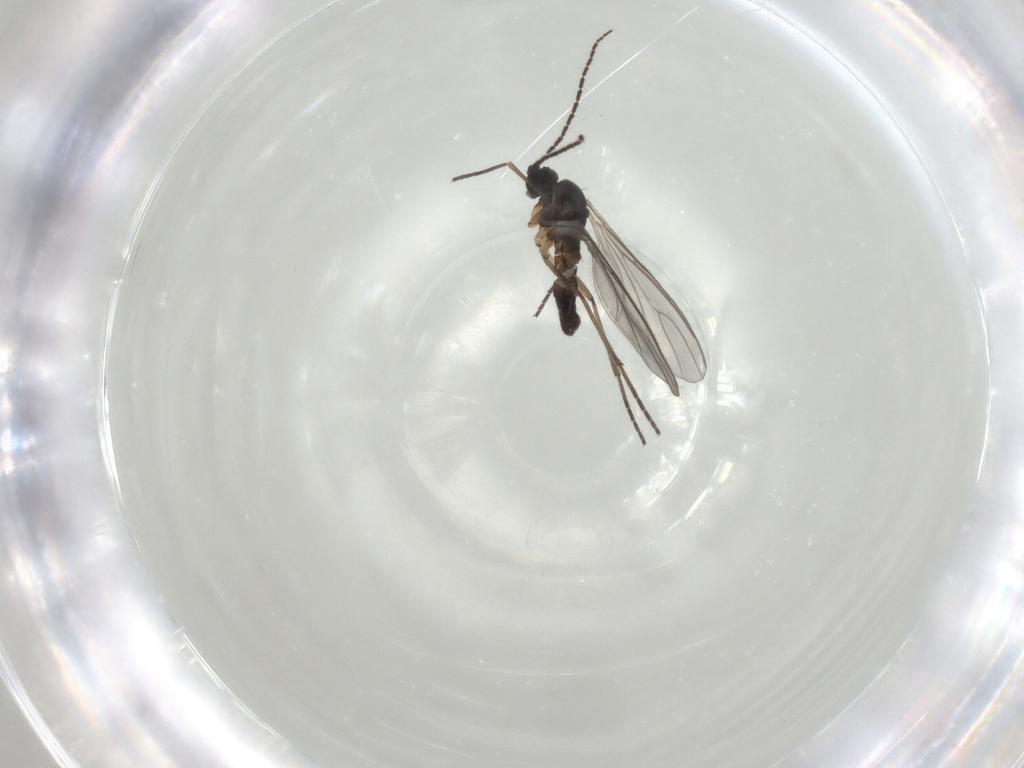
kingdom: Animalia
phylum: Arthropoda
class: Insecta
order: Diptera
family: Sciaridae
